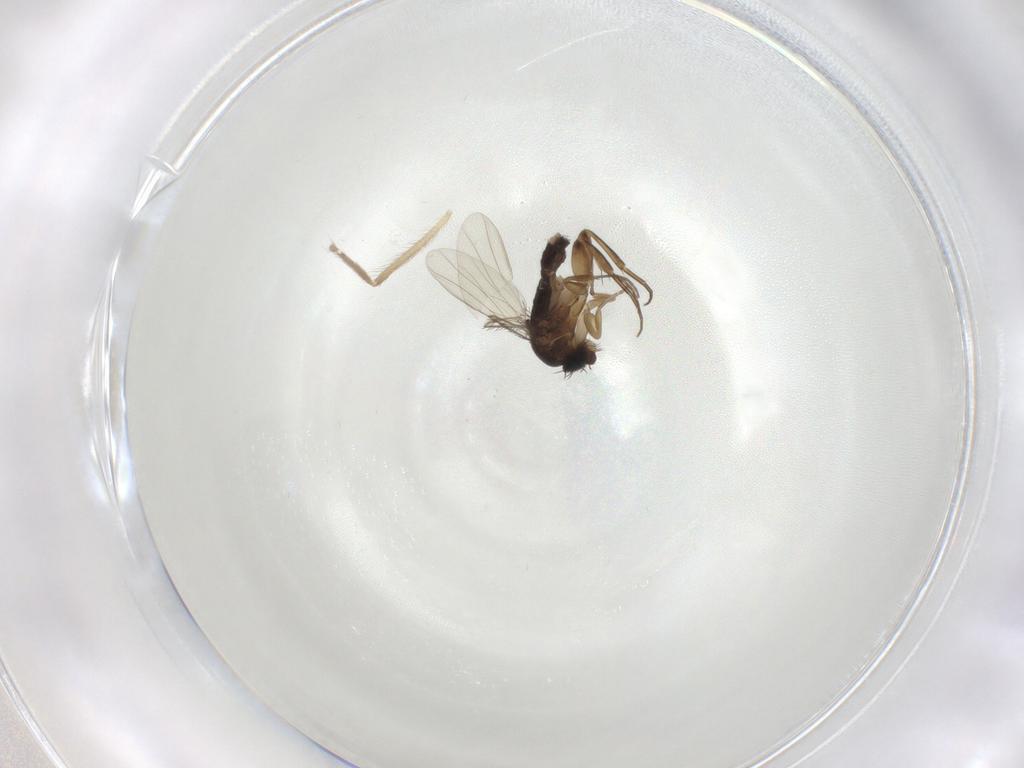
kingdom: Animalia
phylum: Arthropoda
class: Insecta
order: Diptera
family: Phoridae
